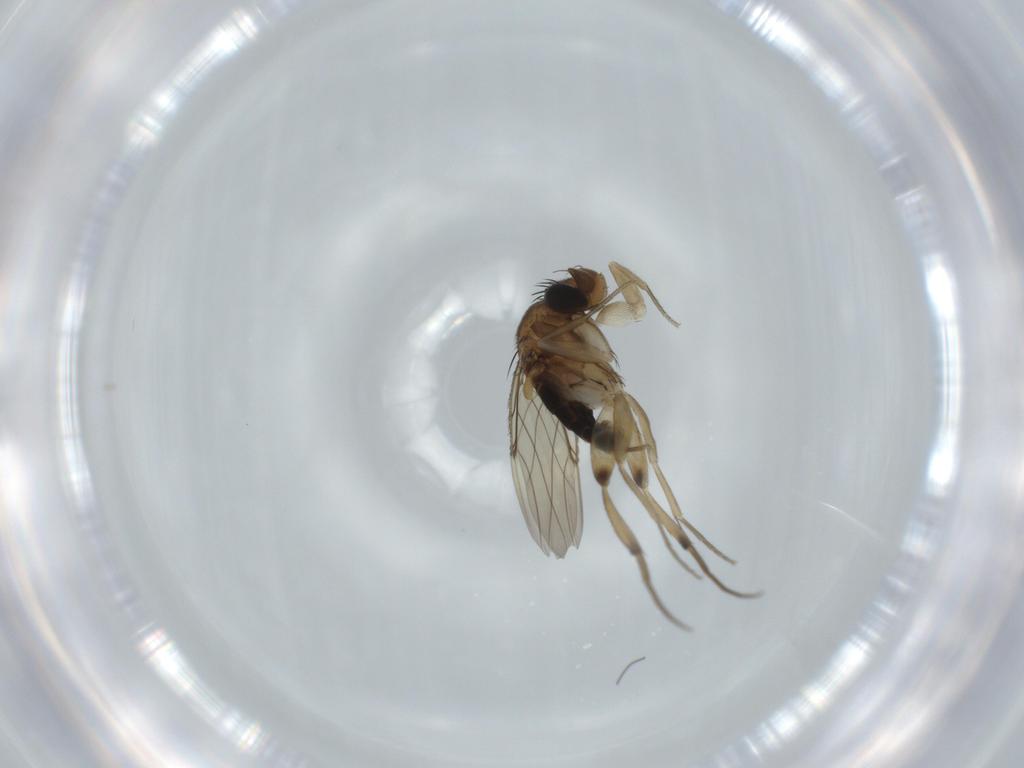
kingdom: Animalia
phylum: Arthropoda
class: Insecta
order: Diptera
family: Phoridae
